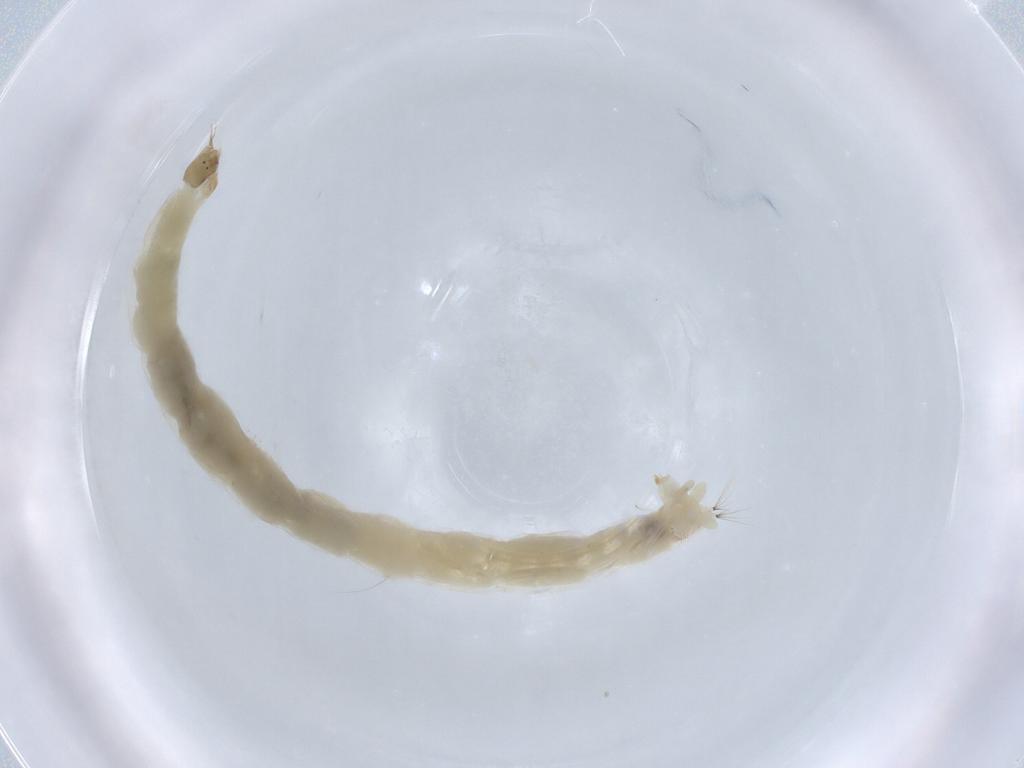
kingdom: Animalia
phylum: Arthropoda
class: Insecta
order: Diptera
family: Chironomidae
